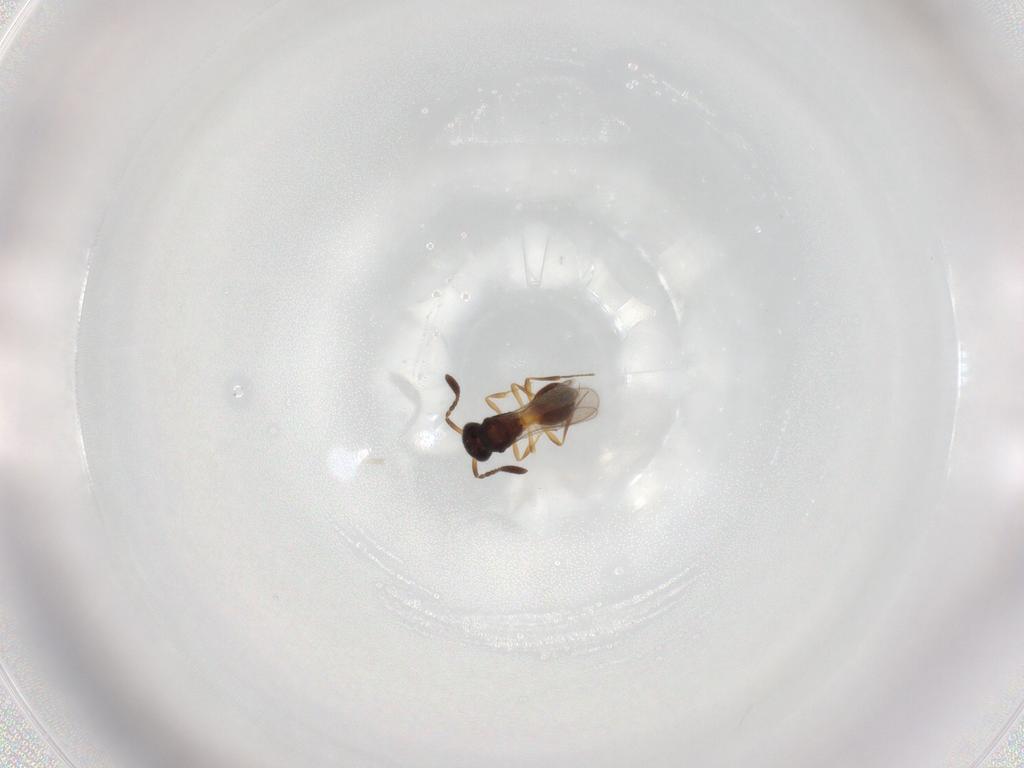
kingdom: Animalia
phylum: Arthropoda
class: Insecta
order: Hymenoptera
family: Scelionidae
